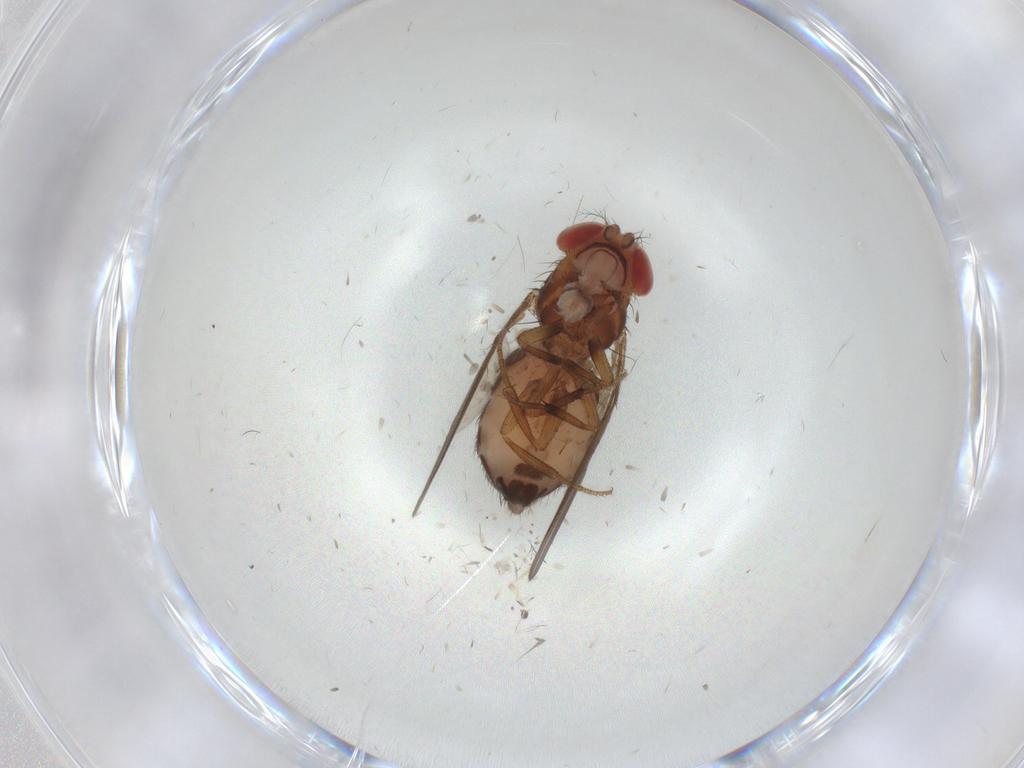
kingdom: Animalia
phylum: Arthropoda
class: Insecta
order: Diptera
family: Drosophilidae
